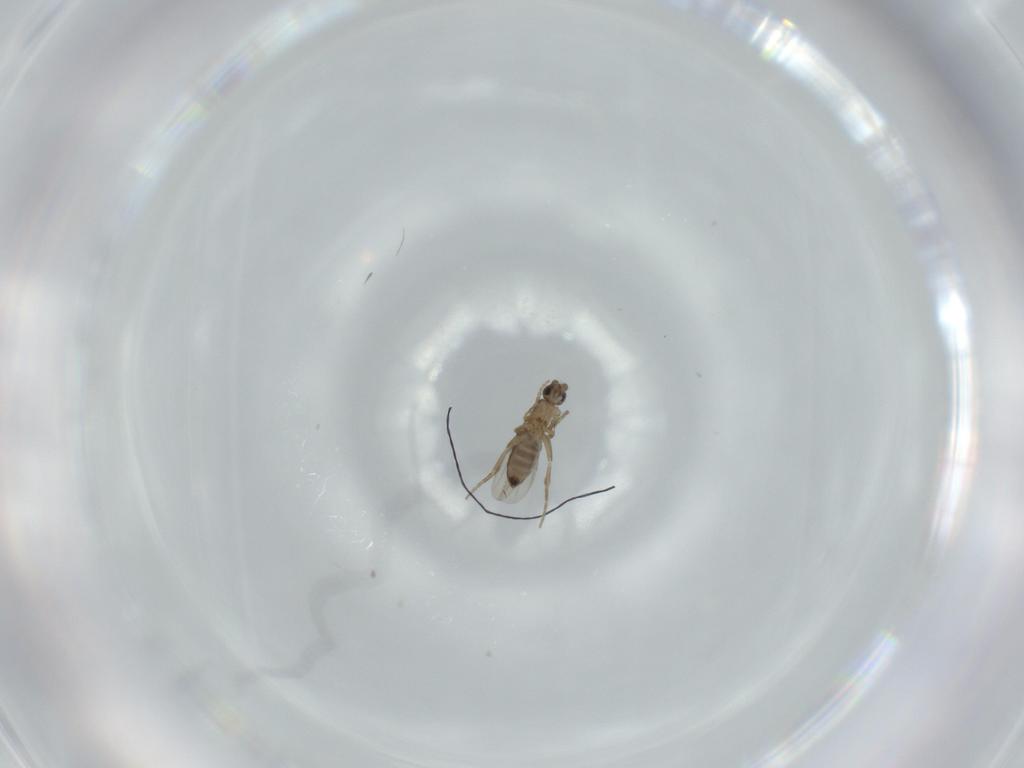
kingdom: Animalia
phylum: Arthropoda
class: Insecta
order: Diptera
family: Phoridae
